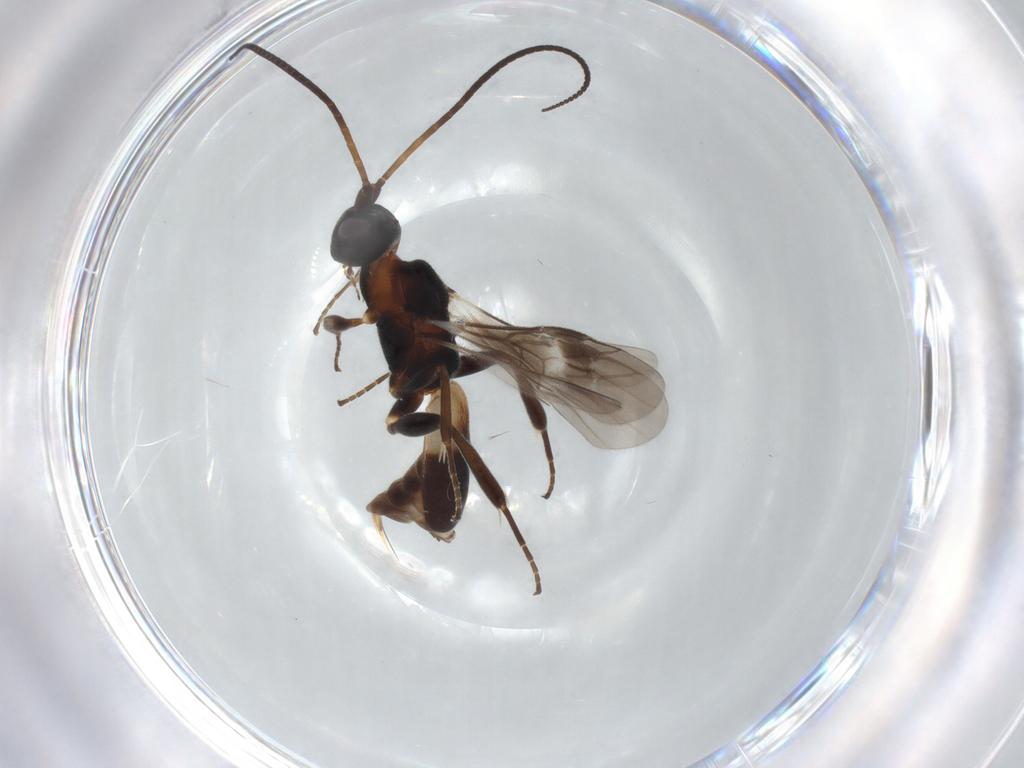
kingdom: Animalia
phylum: Arthropoda
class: Insecta
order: Hymenoptera
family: Braconidae
